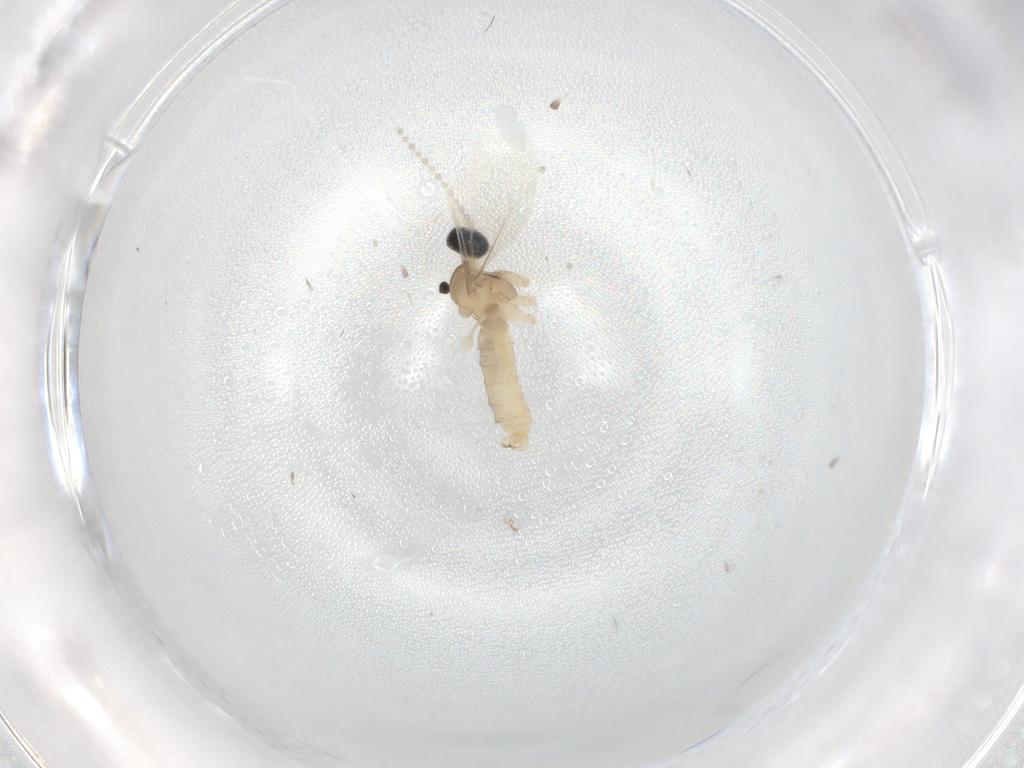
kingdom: Animalia
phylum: Arthropoda
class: Insecta
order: Diptera
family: Cecidomyiidae
